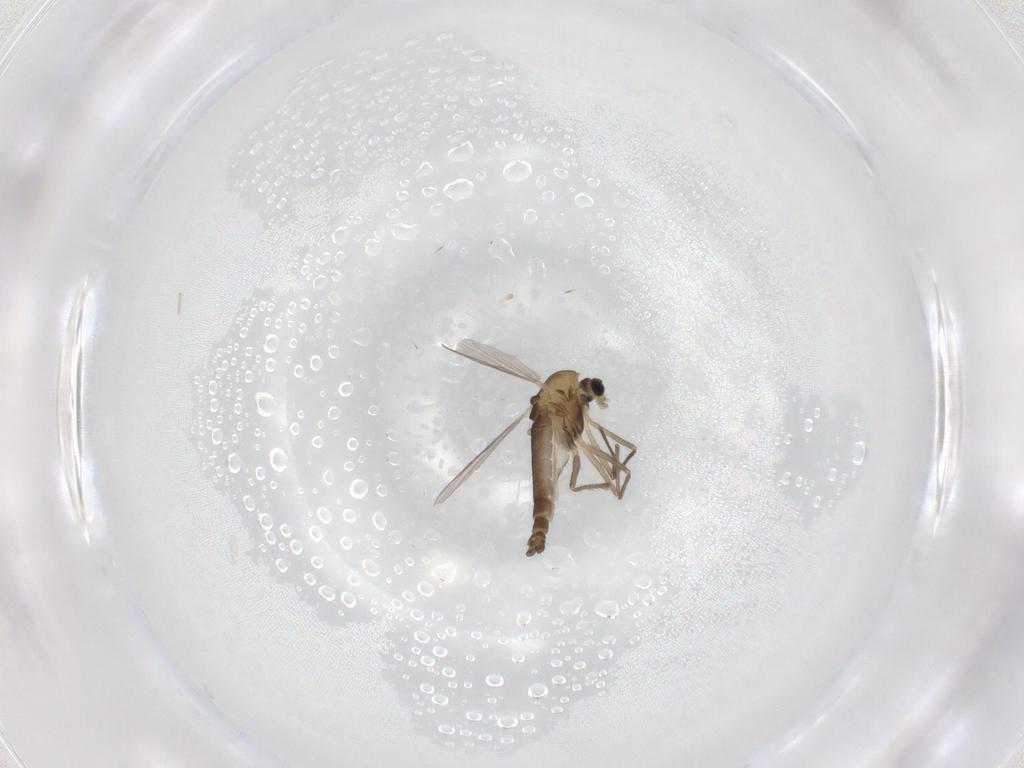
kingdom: Animalia
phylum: Arthropoda
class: Insecta
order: Diptera
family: Chironomidae
